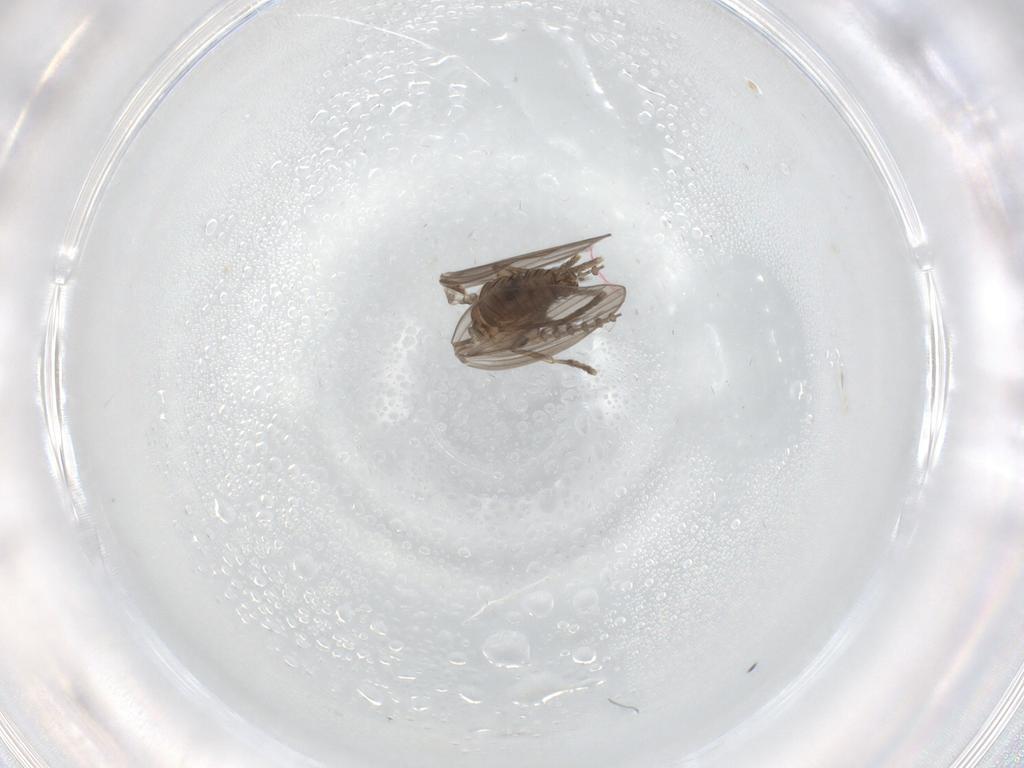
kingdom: Animalia
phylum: Arthropoda
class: Insecta
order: Diptera
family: Psychodidae
